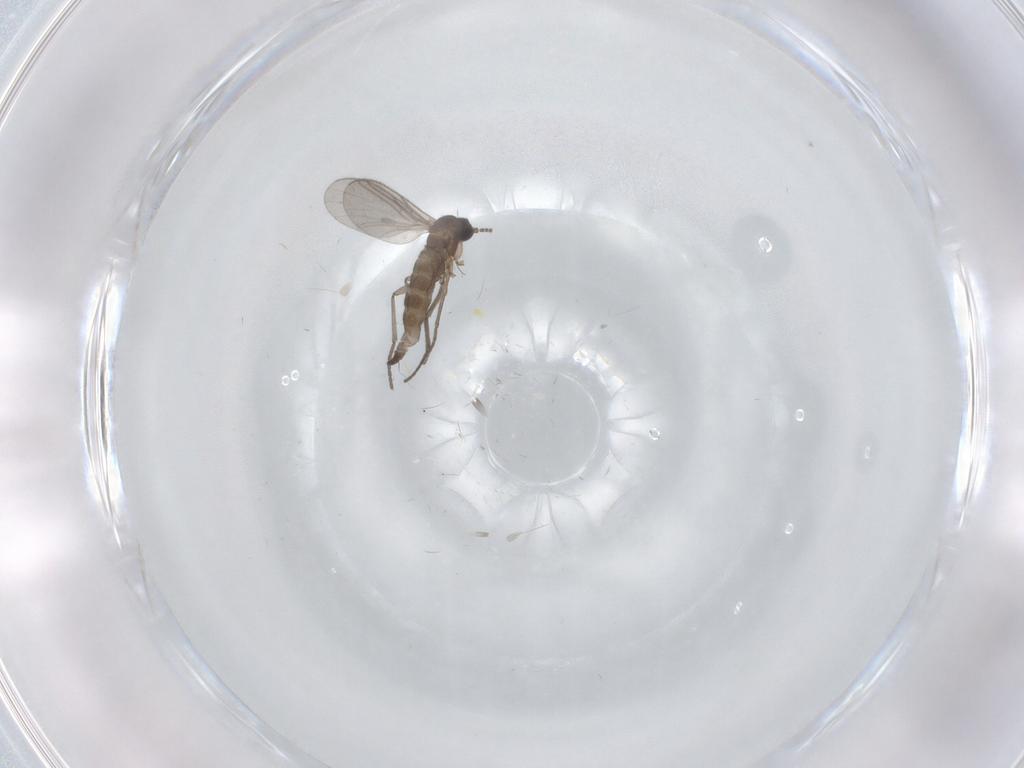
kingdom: Animalia
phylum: Arthropoda
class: Insecta
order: Diptera
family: Cecidomyiidae
